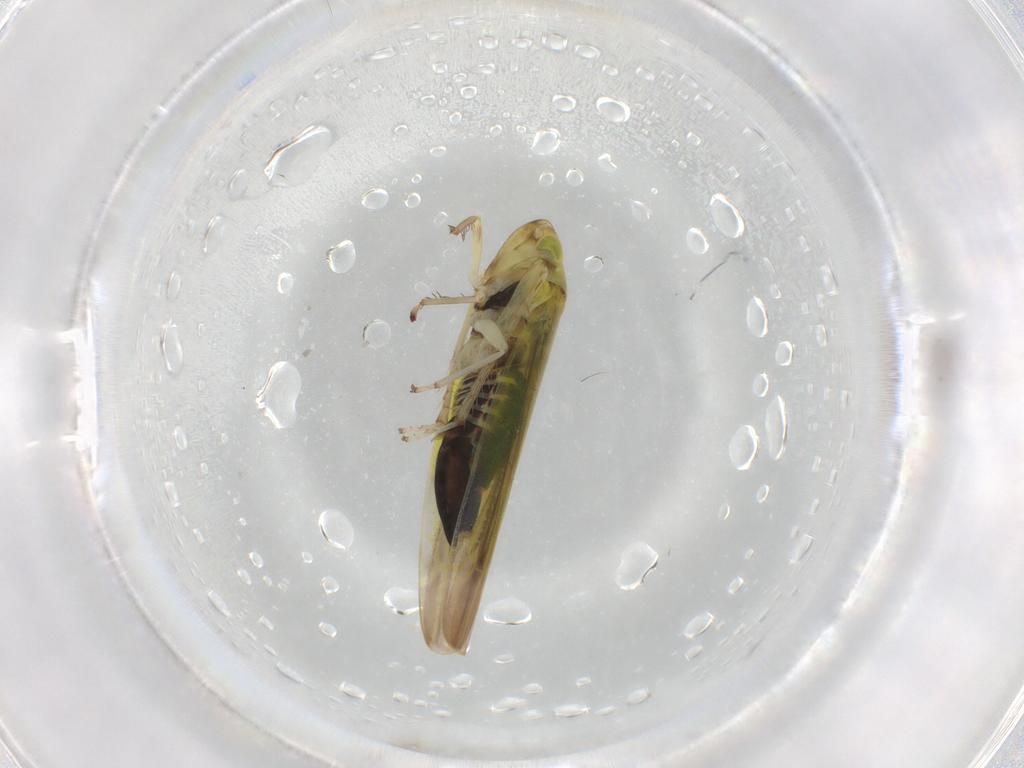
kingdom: Animalia
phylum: Arthropoda
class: Insecta
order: Hemiptera
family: Cicadellidae
